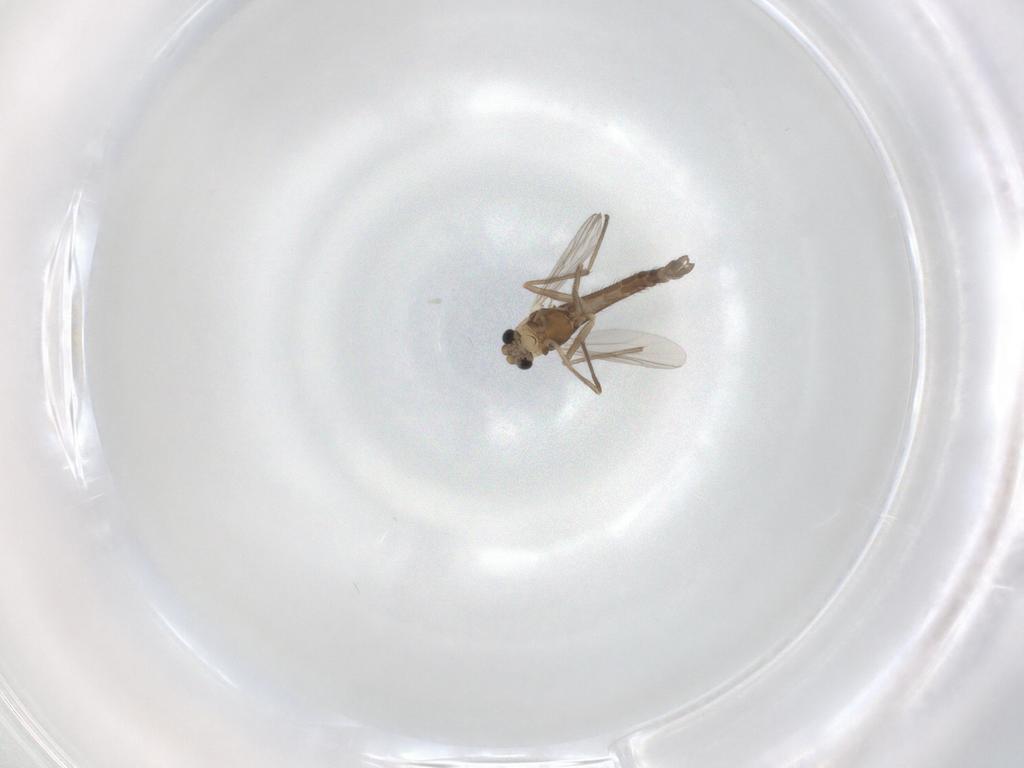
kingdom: Animalia
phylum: Arthropoda
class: Insecta
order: Diptera
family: Chironomidae
